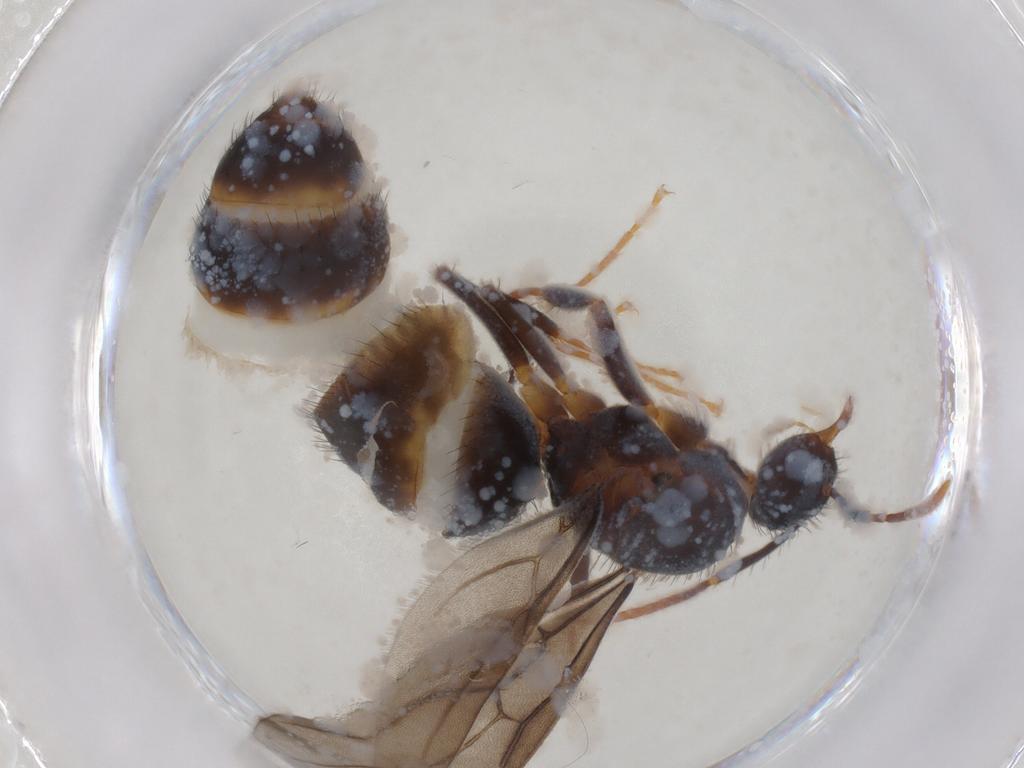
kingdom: Animalia
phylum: Arthropoda
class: Insecta
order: Hymenoptera
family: Formicidae
